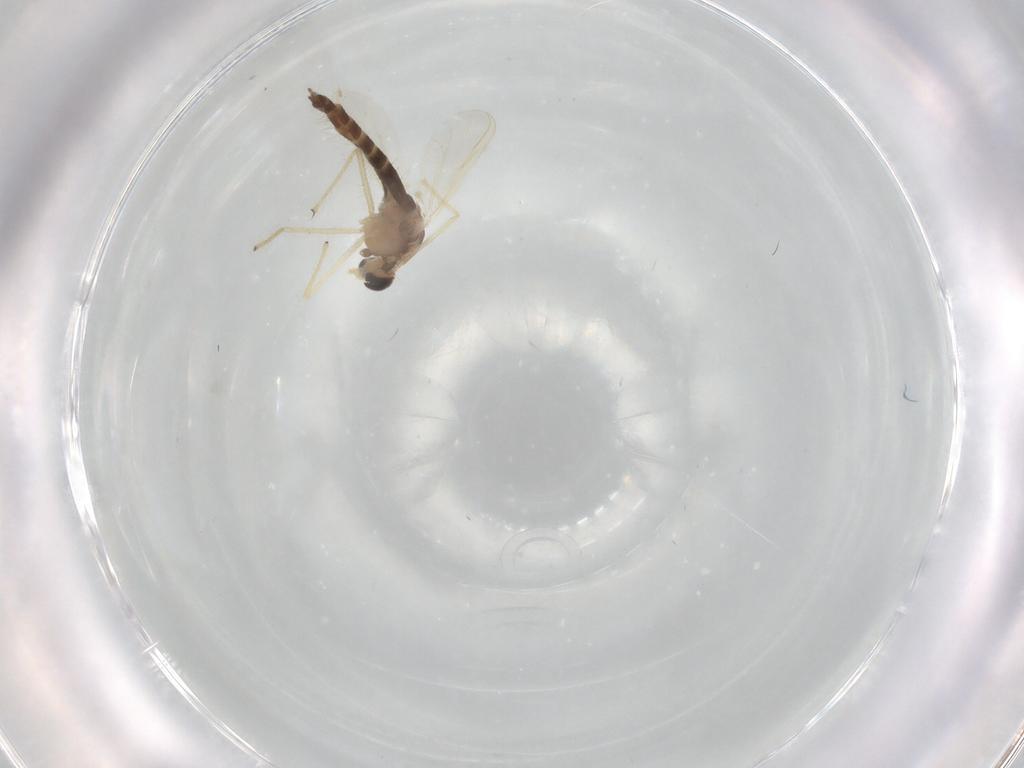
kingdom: Animalia
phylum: Arthropoda
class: Insecta
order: Diptera
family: Chironomidae
